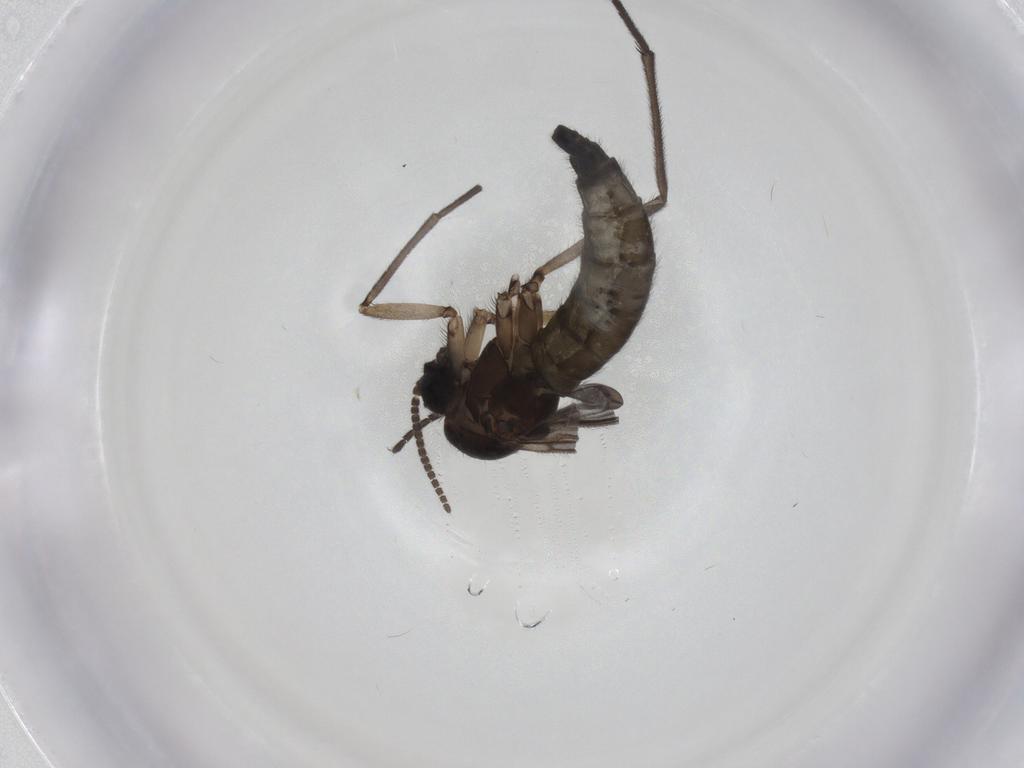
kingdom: Animalia
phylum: Arthropoda
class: Insecta
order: Diptera
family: Sciaridae
